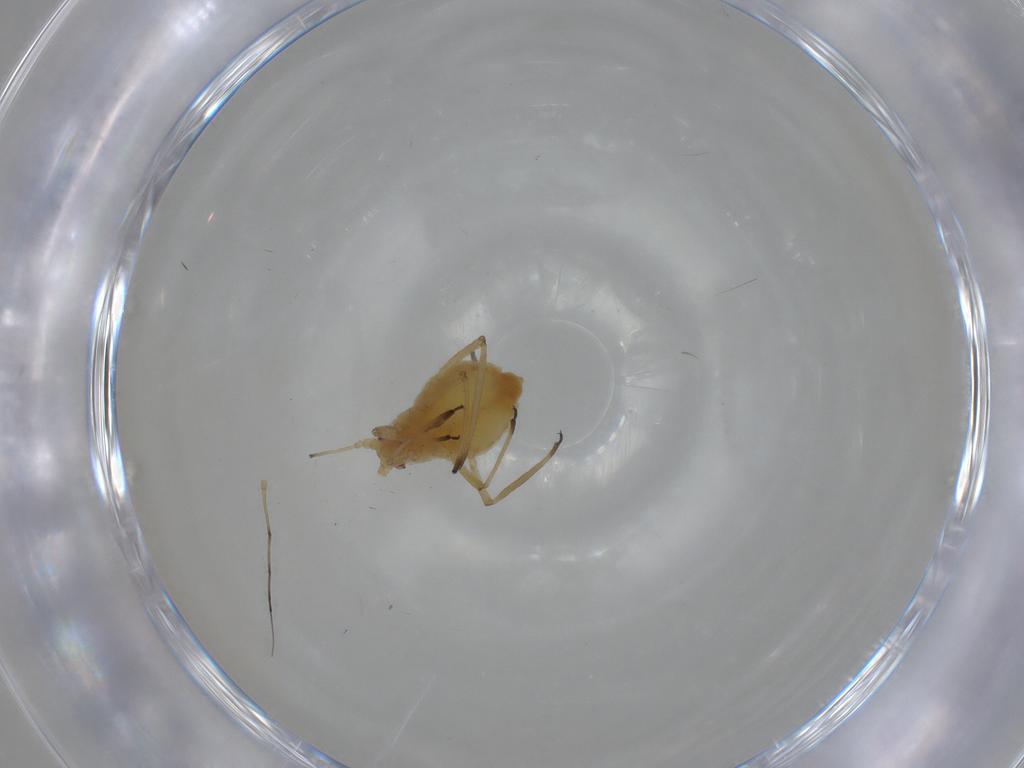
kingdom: Animalia
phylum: Arthropoda
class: Insecta
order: Hemiptera
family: Aphididae
